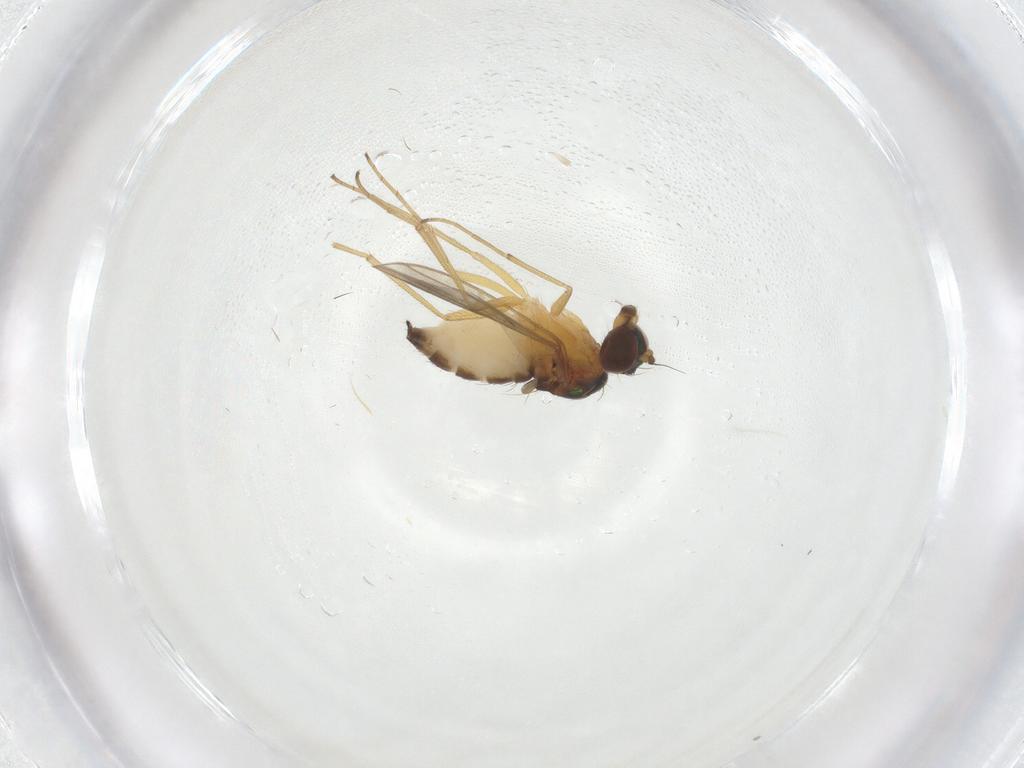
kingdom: Animalia
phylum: Arthropoda
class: Insecta
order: Diptera
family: Dolichopodidae
